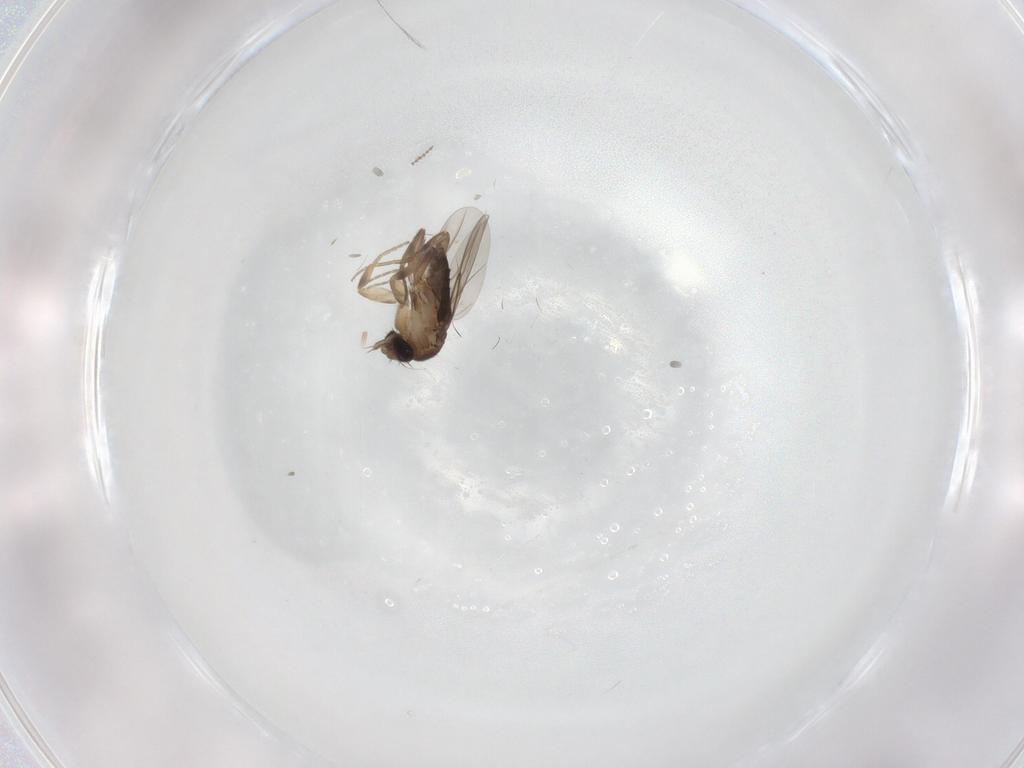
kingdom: Animalia
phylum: Arthropoda
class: Insecta
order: Diptera
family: Phoridae
